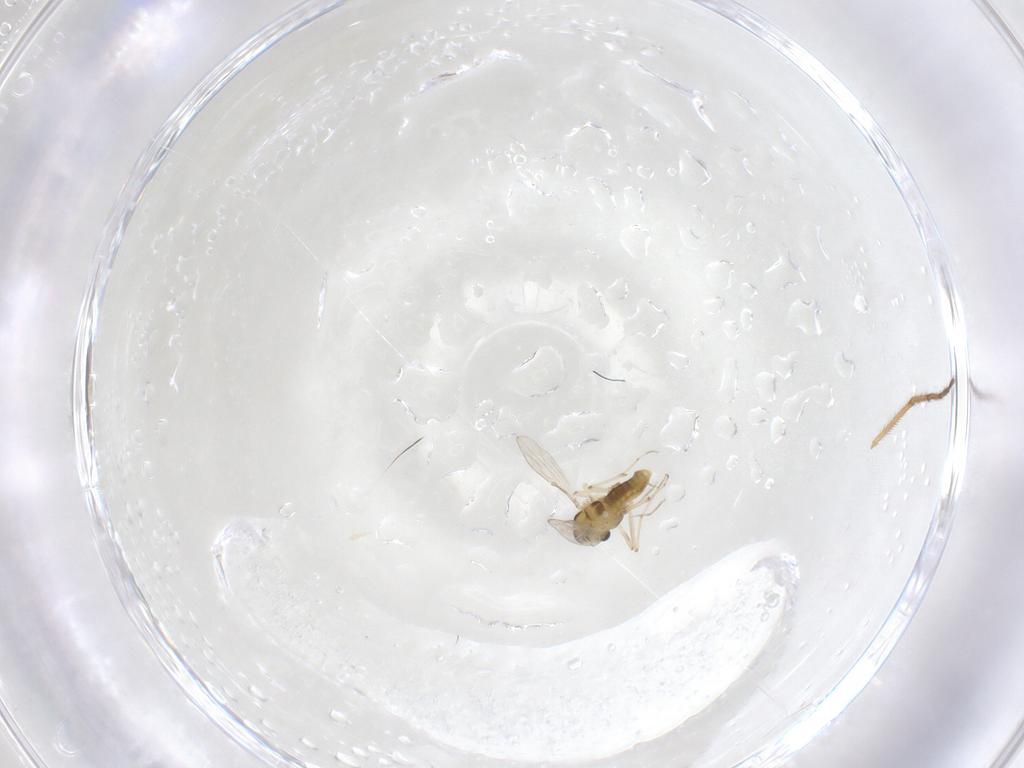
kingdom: Animalia
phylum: Arthropoda
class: Insecta
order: Diptera
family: Chironomidae
